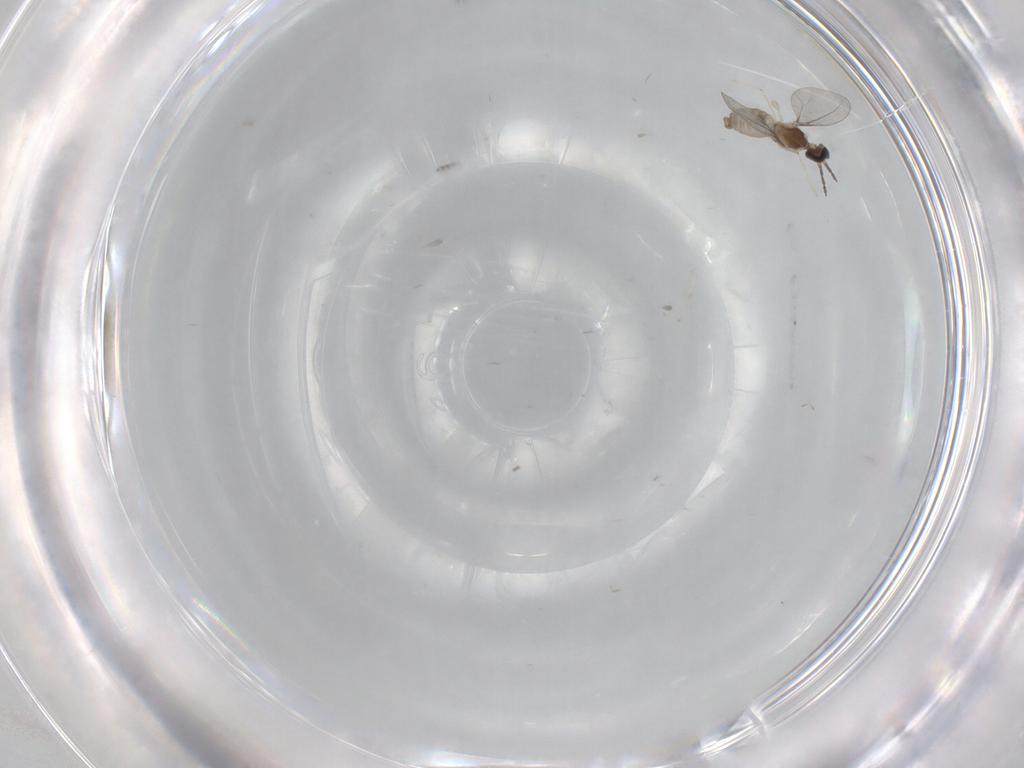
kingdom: Animalia
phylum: Arthropoda
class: Insecta
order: Diptera
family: Cecidomyiidae
